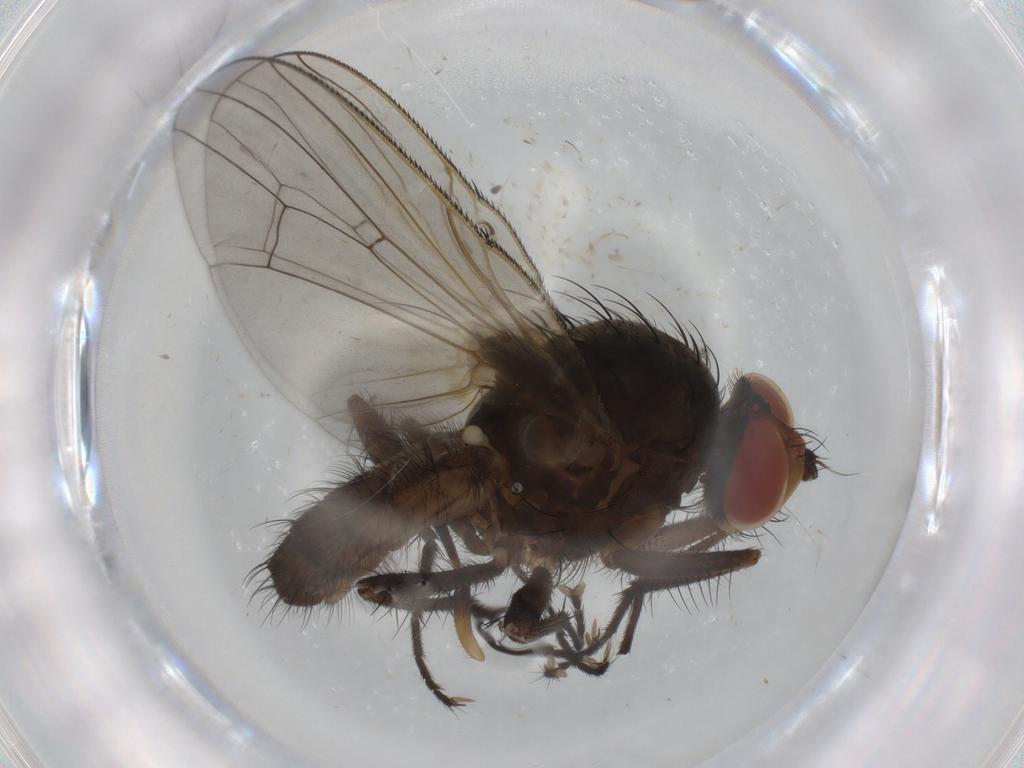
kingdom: Animalia
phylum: Arthropoda
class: Insecta
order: Diptera
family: Anthomyiidae
